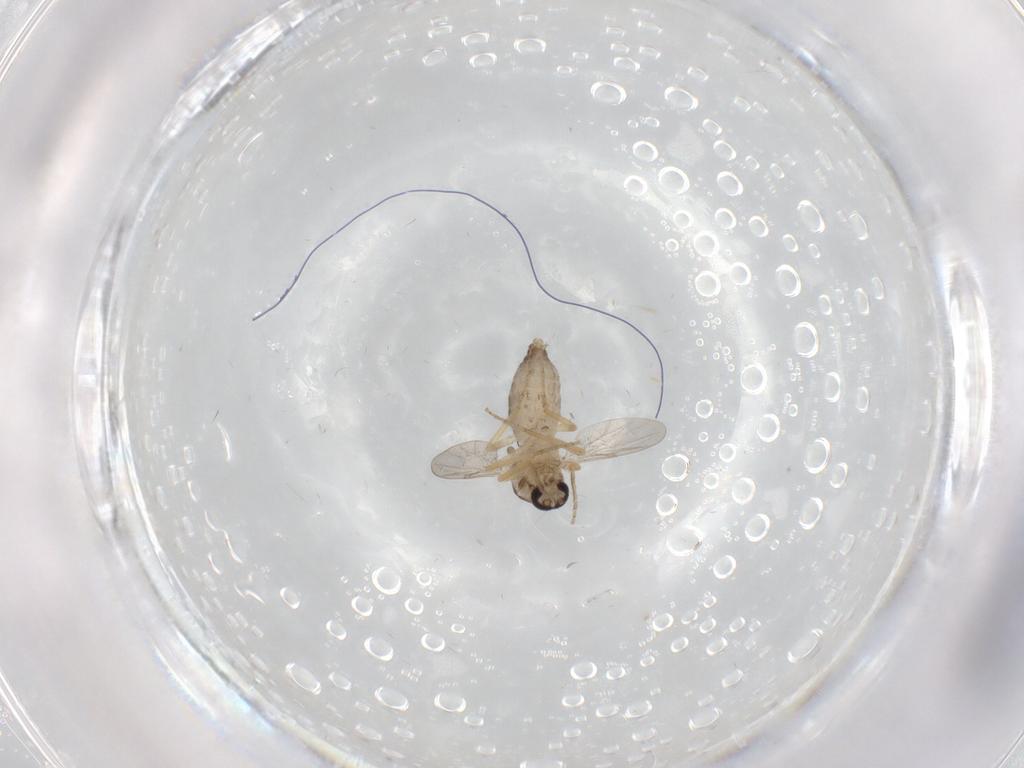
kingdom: Animalia
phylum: Arthropoda
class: Insecta
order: Diptera
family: Ceratopogonidae
